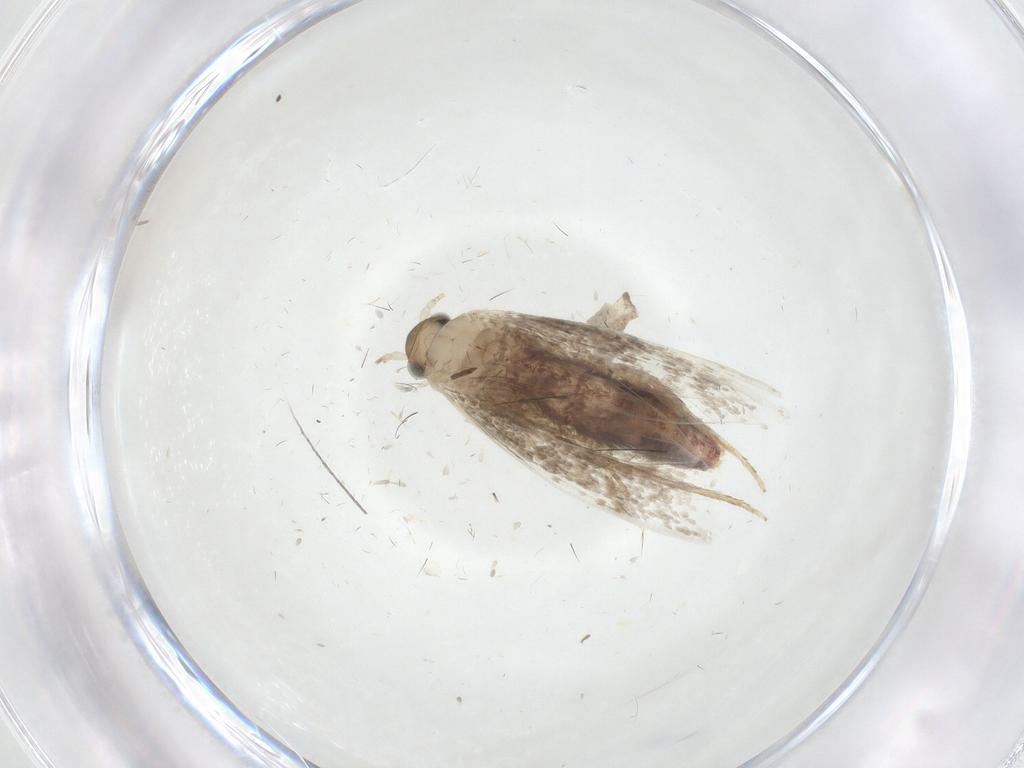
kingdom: Animalia
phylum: Arthropoda
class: Insecta
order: Lepidoptera
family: Dryadaulidae
